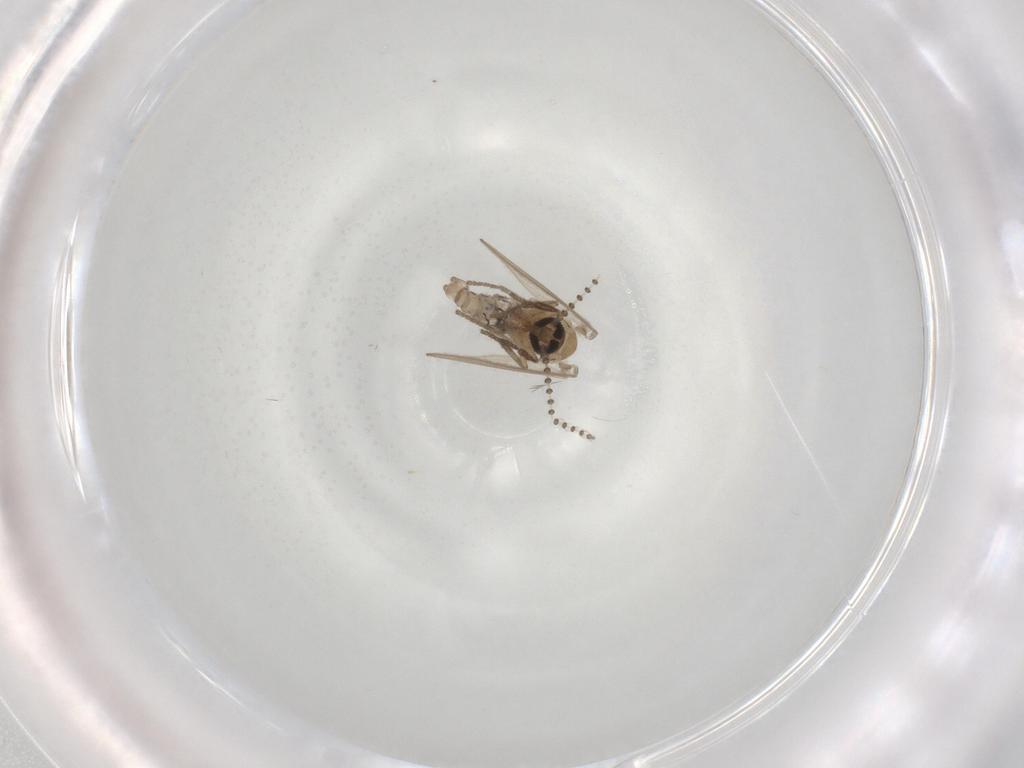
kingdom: Animalia
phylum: Arthropoda
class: Insecta
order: Diptera
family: Psychodidae
